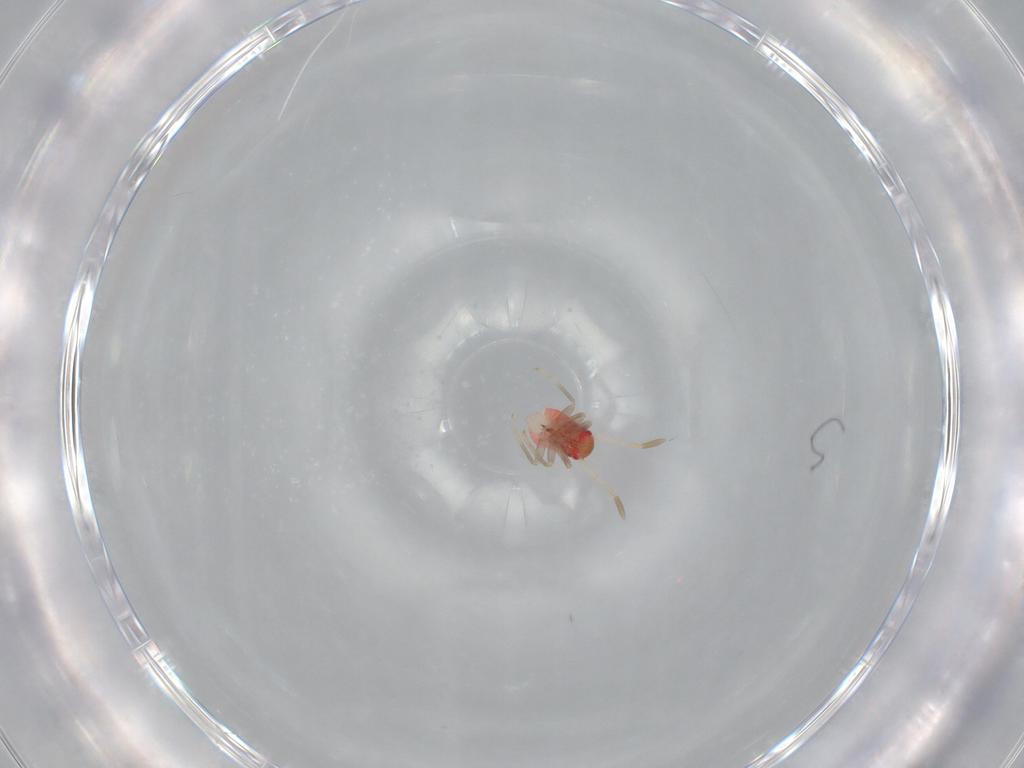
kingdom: Animalia
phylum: Arthropoda
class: Insecta
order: Hemiptera
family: Miridae
